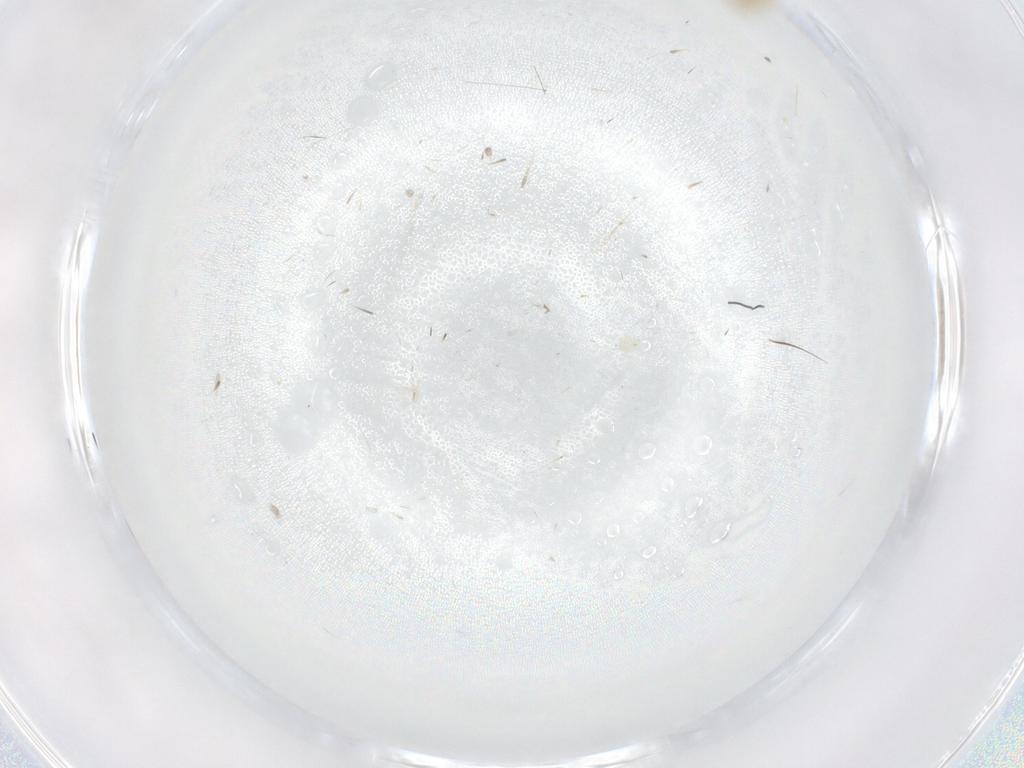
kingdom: Animalia
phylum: Arthropoda
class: Insecta
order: Diptera
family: Cecidomyiidae
